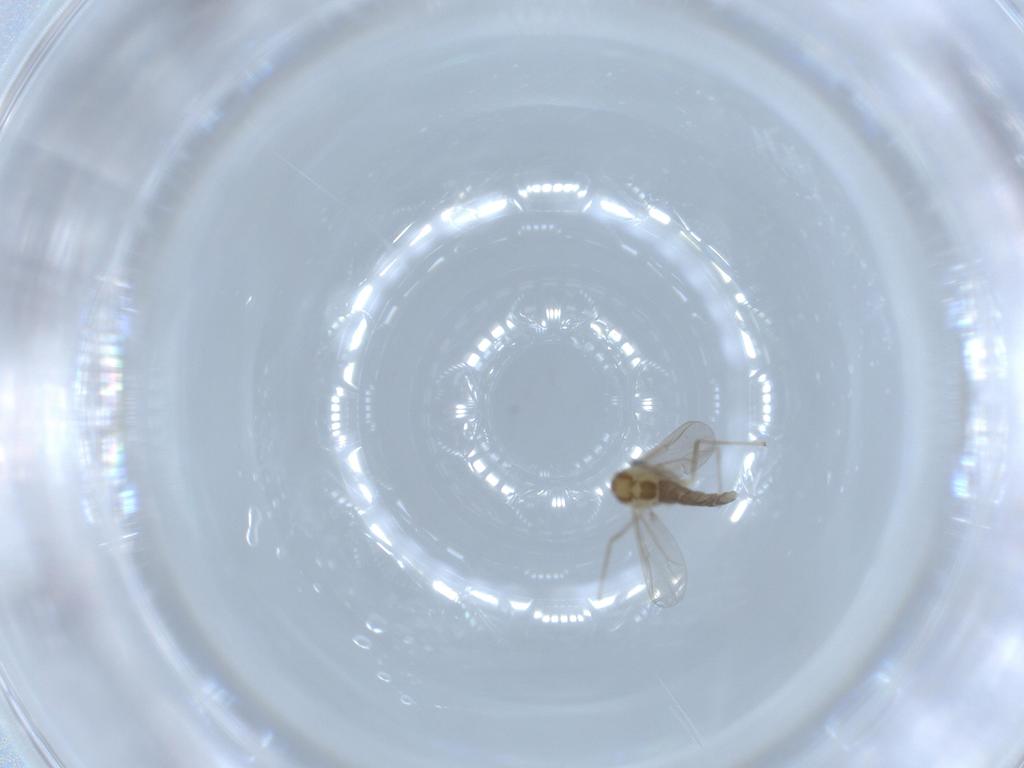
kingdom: Animalia
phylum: Arthropoda
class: Insecta
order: Diptera
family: Chironomidae
